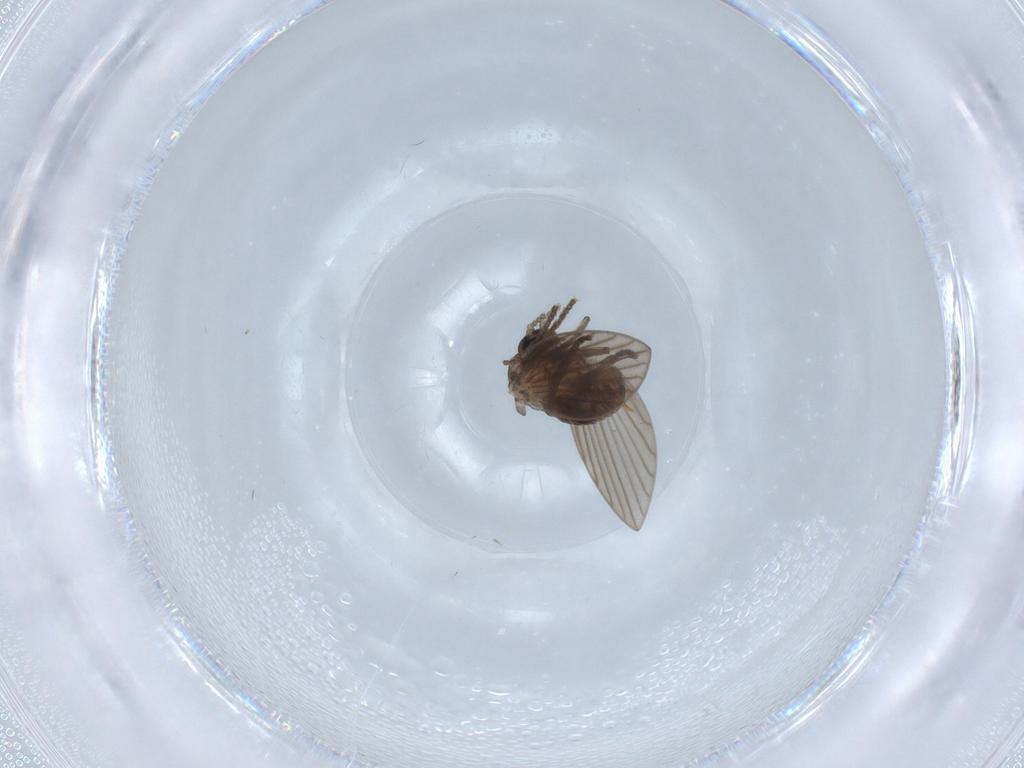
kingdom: Animalia
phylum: Arthropoda
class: Insecta
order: Diptera
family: Psychodidae
